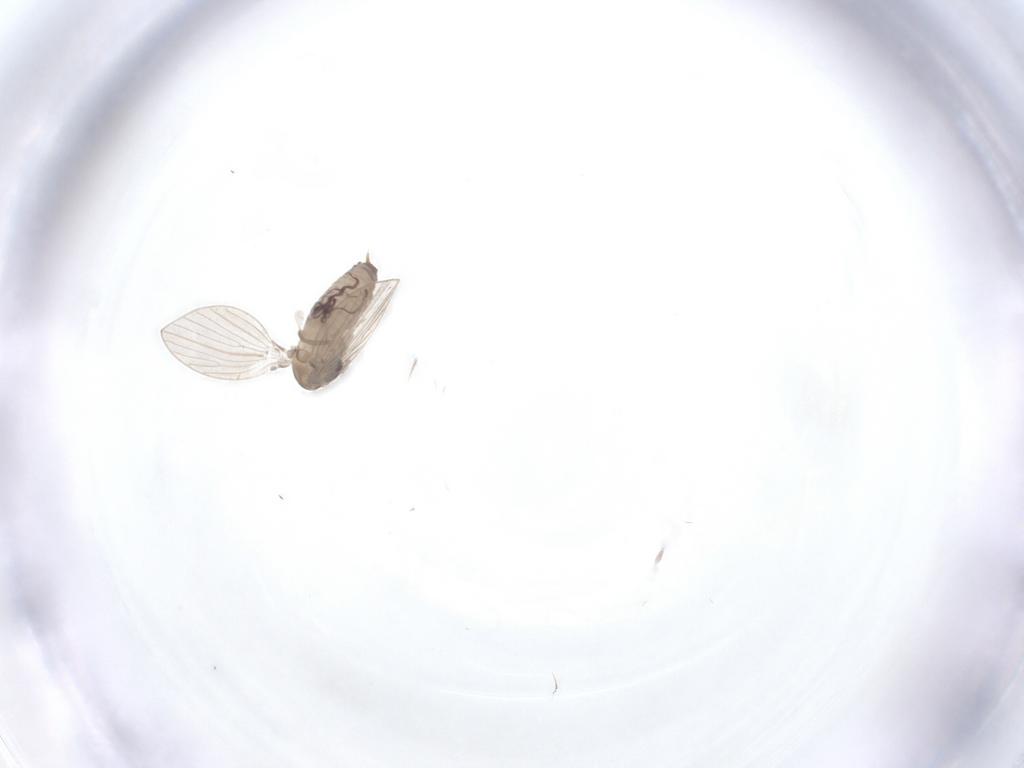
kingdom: Animalia
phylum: Arthropoda
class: Insecta
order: Diptera
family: Psychodidae
